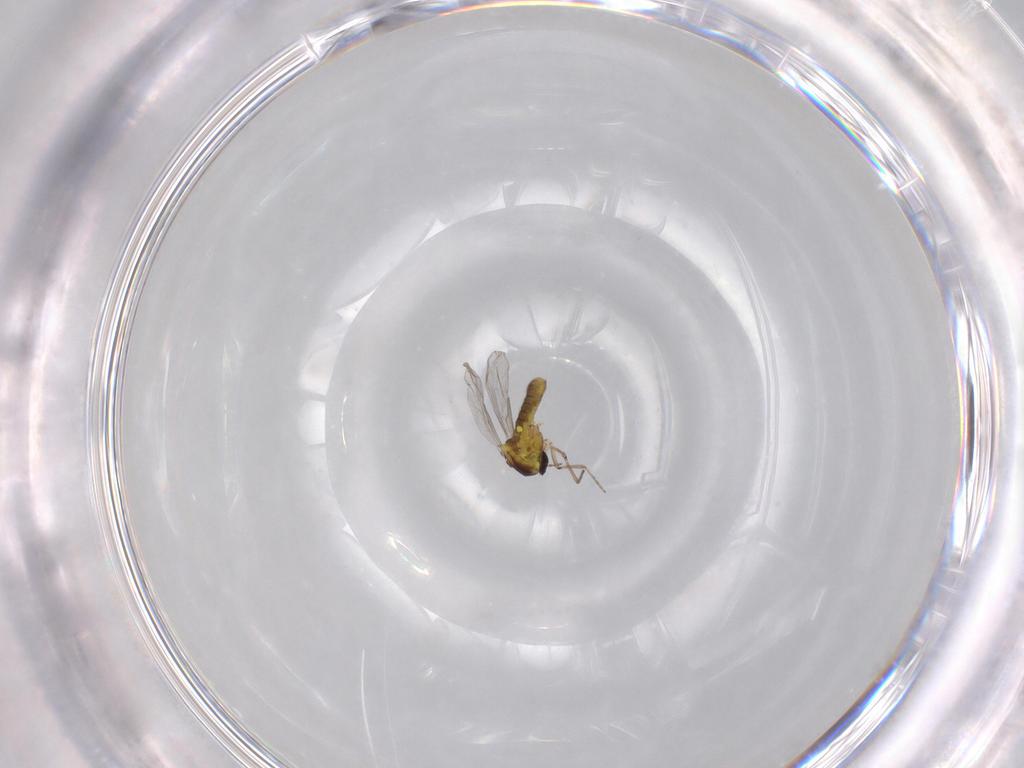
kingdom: Animalia
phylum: Arthropoda
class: Insecta
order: Diptera
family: Ceratopogonidae
